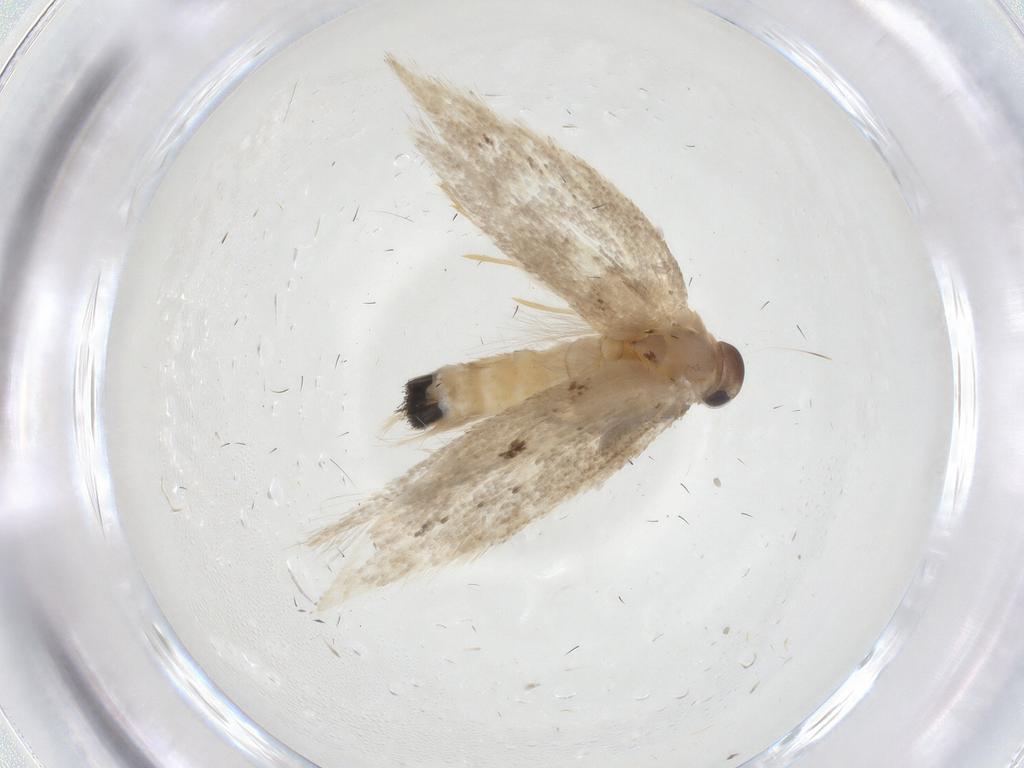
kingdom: Animalia
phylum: Arthropoda
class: Insecta
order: Lepidoptera
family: Elachistidae
